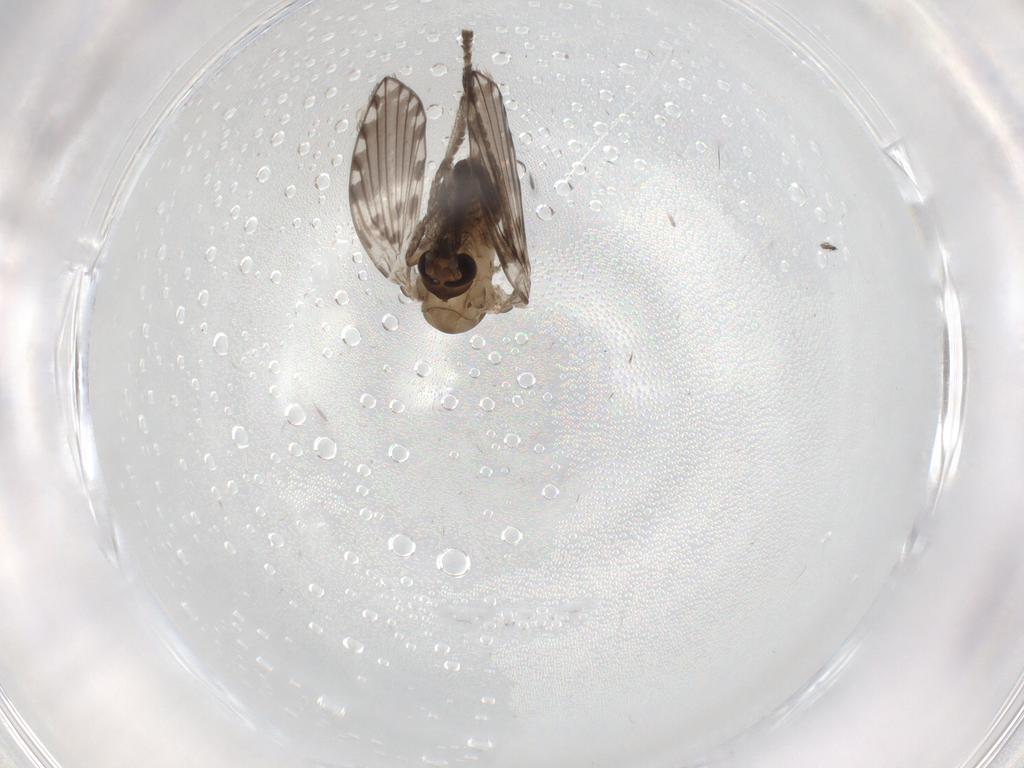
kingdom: Animalia
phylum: Arthropoda
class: Insecta
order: Diptera
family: Psychodidae
